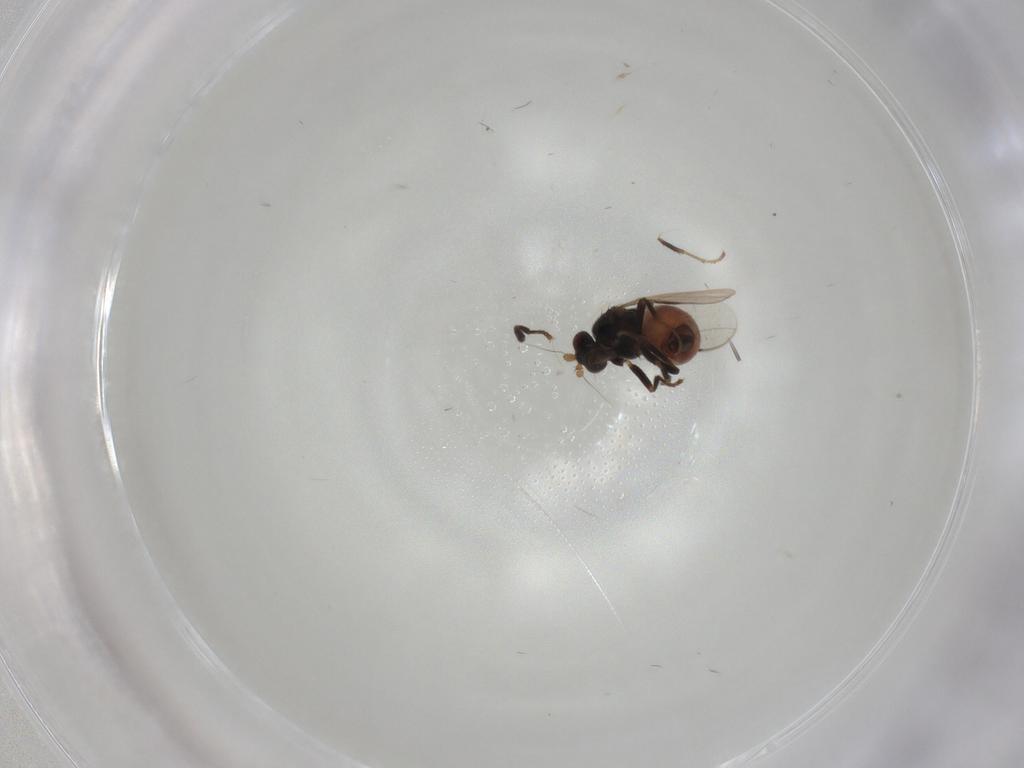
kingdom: Animalia
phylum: Arthropoda
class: Insecta
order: Diptera
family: Sphaeroceridae
